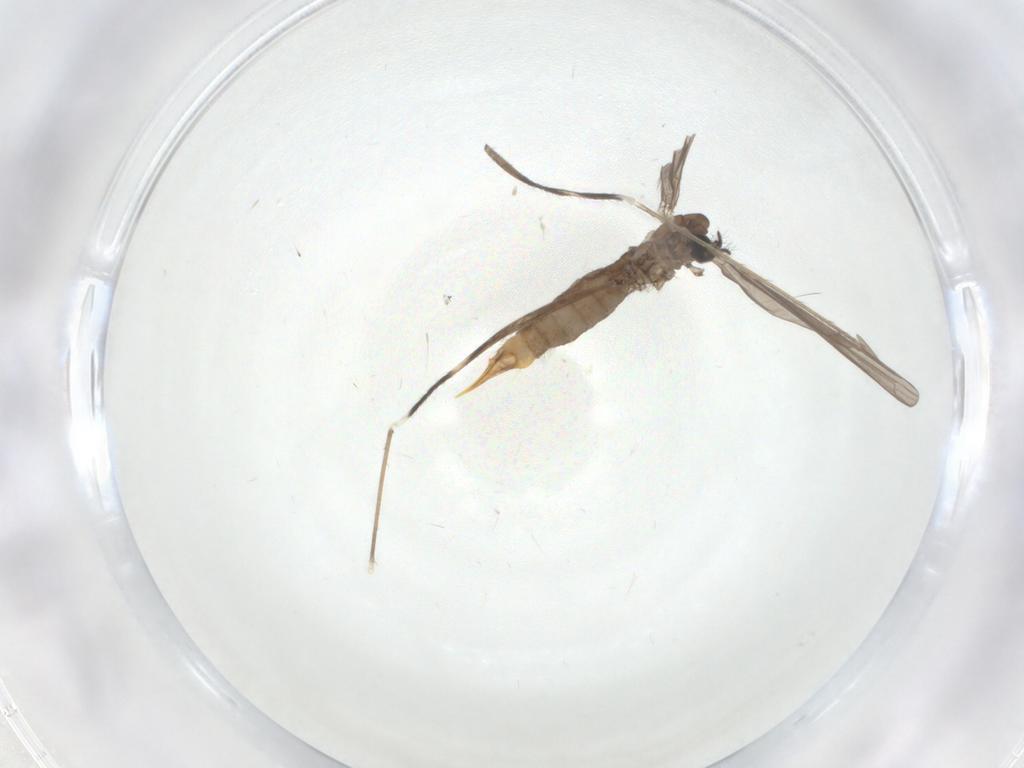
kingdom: Animalia
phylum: Arthropoda
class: Insecta
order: Diptera
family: Limoniidae
